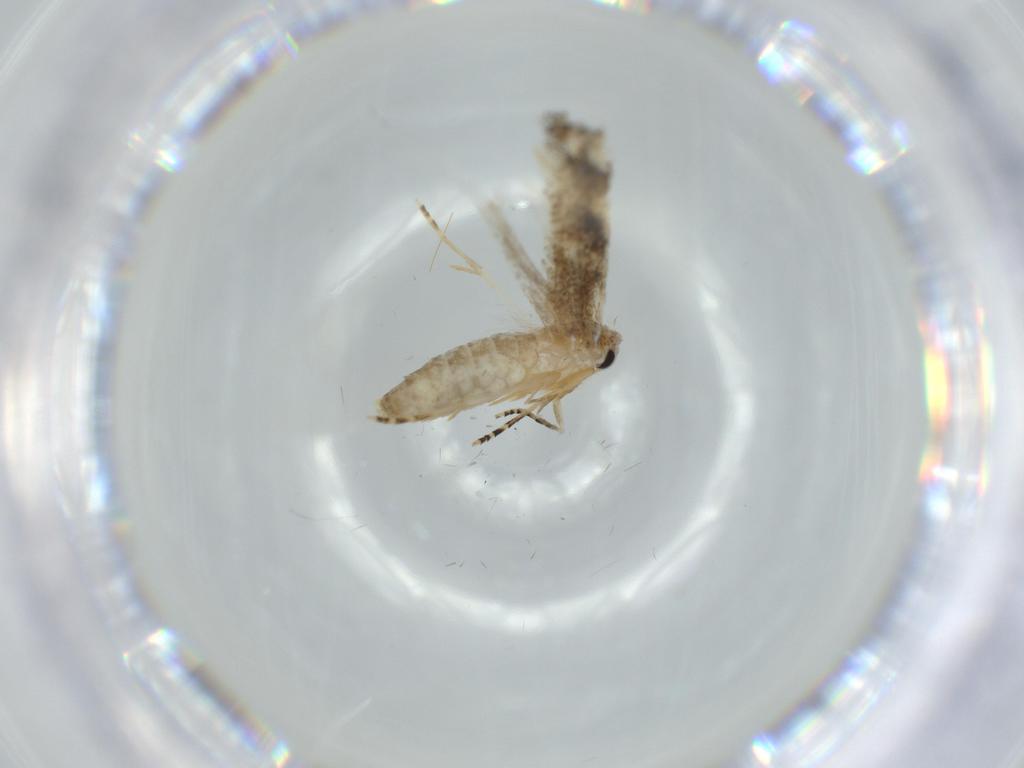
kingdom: Animalia
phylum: Arthropoda
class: Insecta
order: Lepidoptera
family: Bucculatricidae
